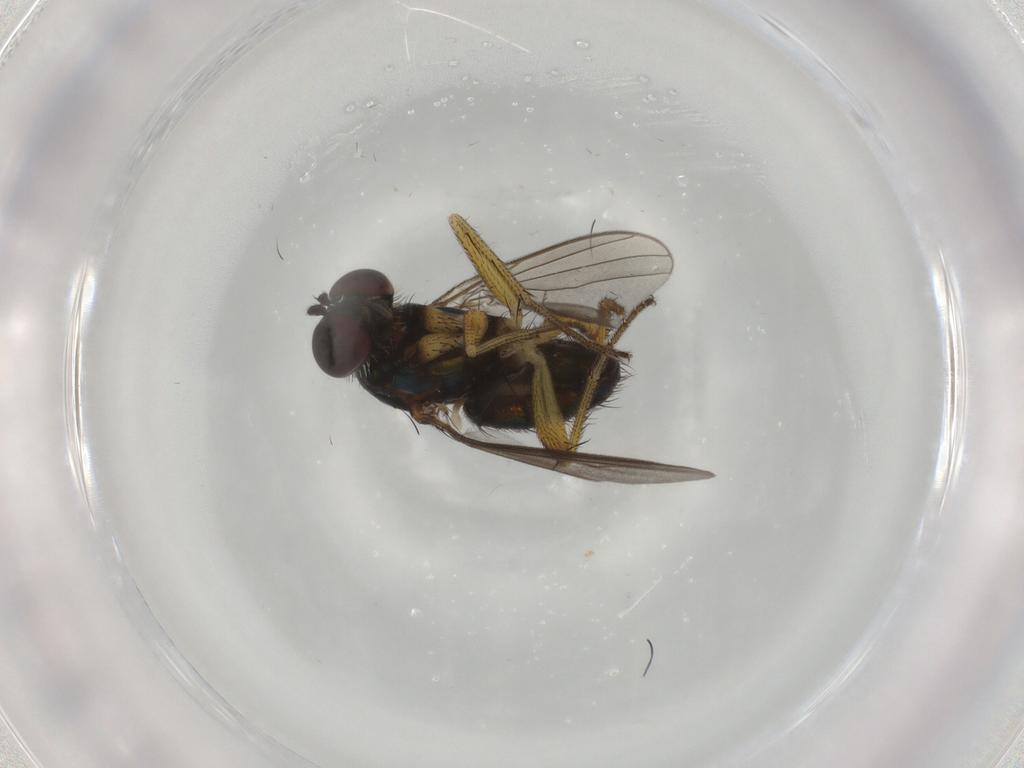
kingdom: Animalia
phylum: Arthropoda
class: Insecta
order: Diptera
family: Dolichopodidae
